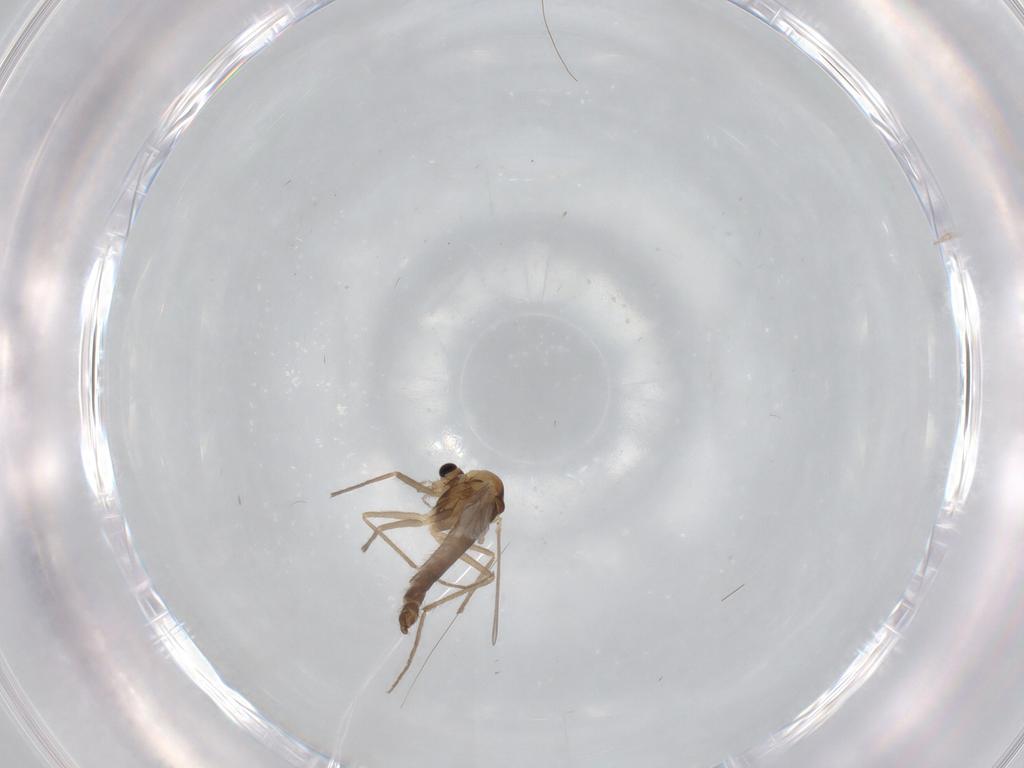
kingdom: Animalia
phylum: Arthropoda
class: Insecta
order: Diptera
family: Chironomidae
